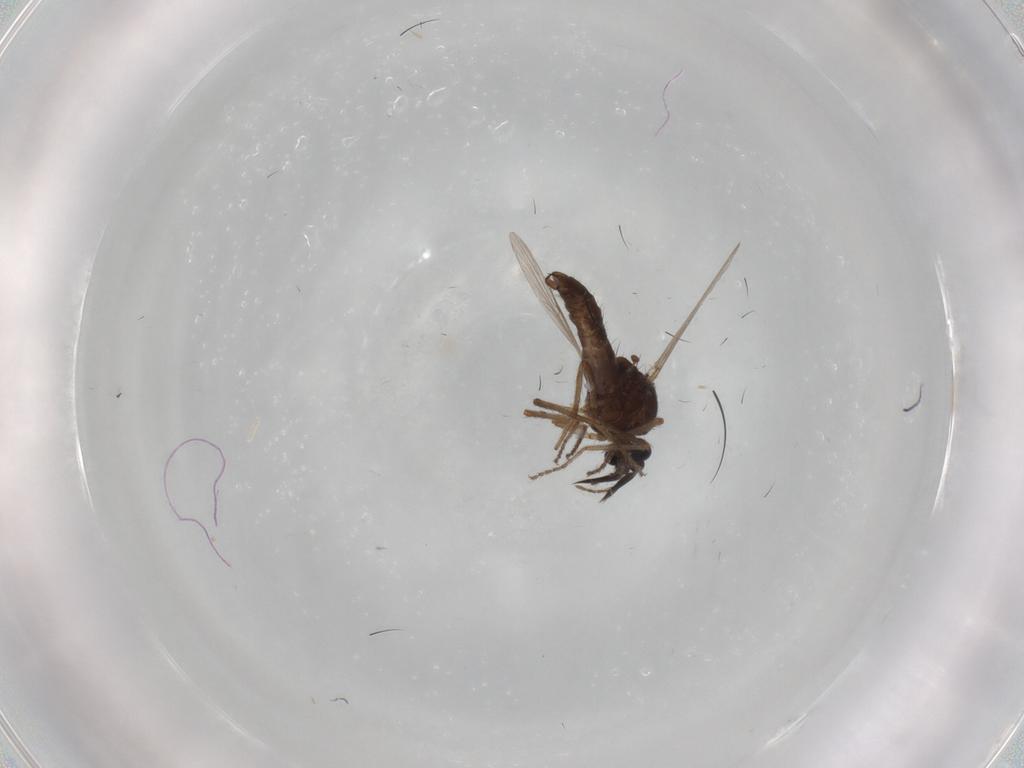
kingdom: Animalia
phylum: Arthropoda
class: Insecta
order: Diptera
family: Ceratopogonidae
